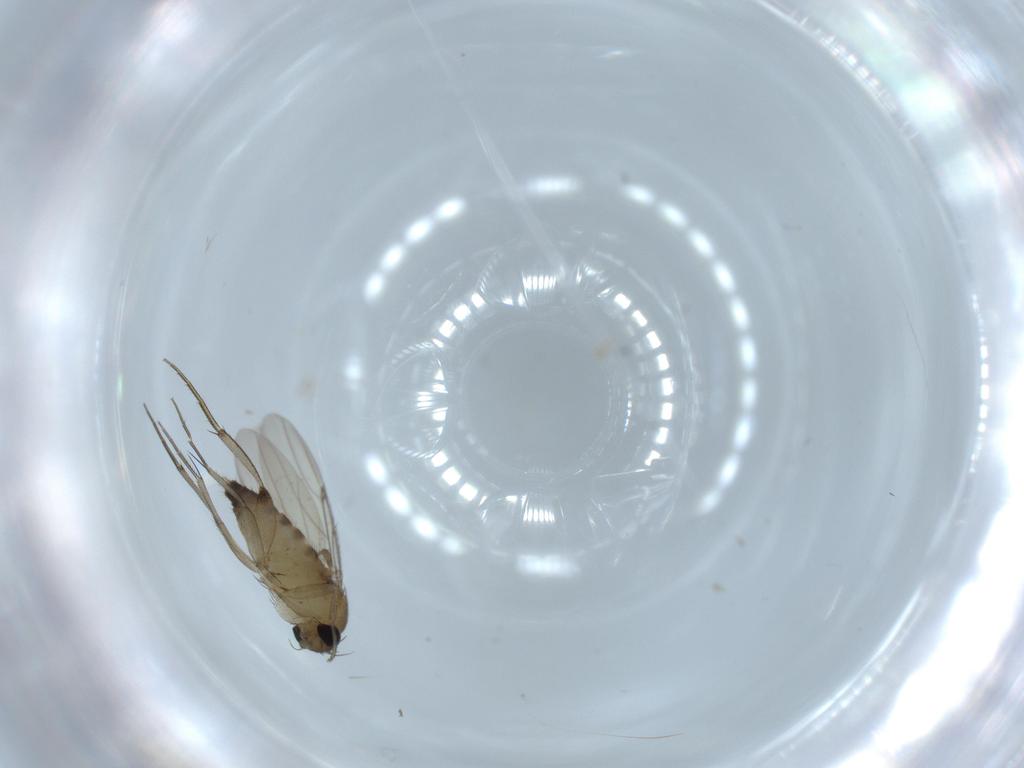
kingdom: Animalia
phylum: Arthropoda
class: Insecta
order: Diptera
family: Phoridae
